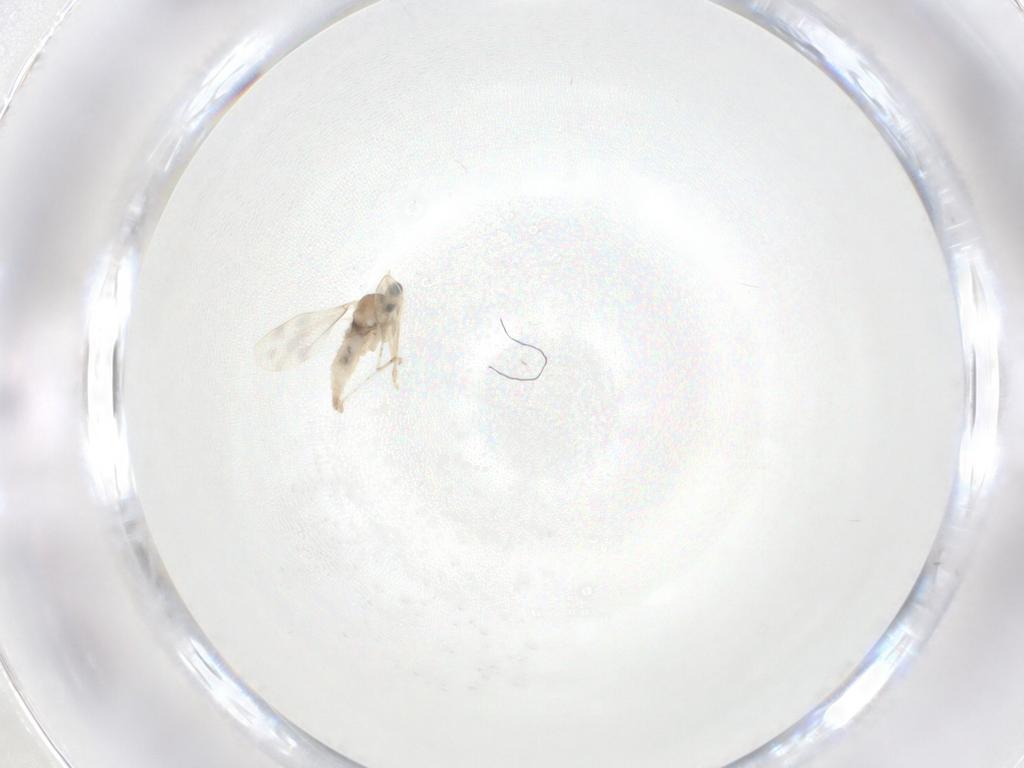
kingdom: Animalia
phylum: Arthropoda
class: Insecta
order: Diptera
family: Cecidomyiidae
